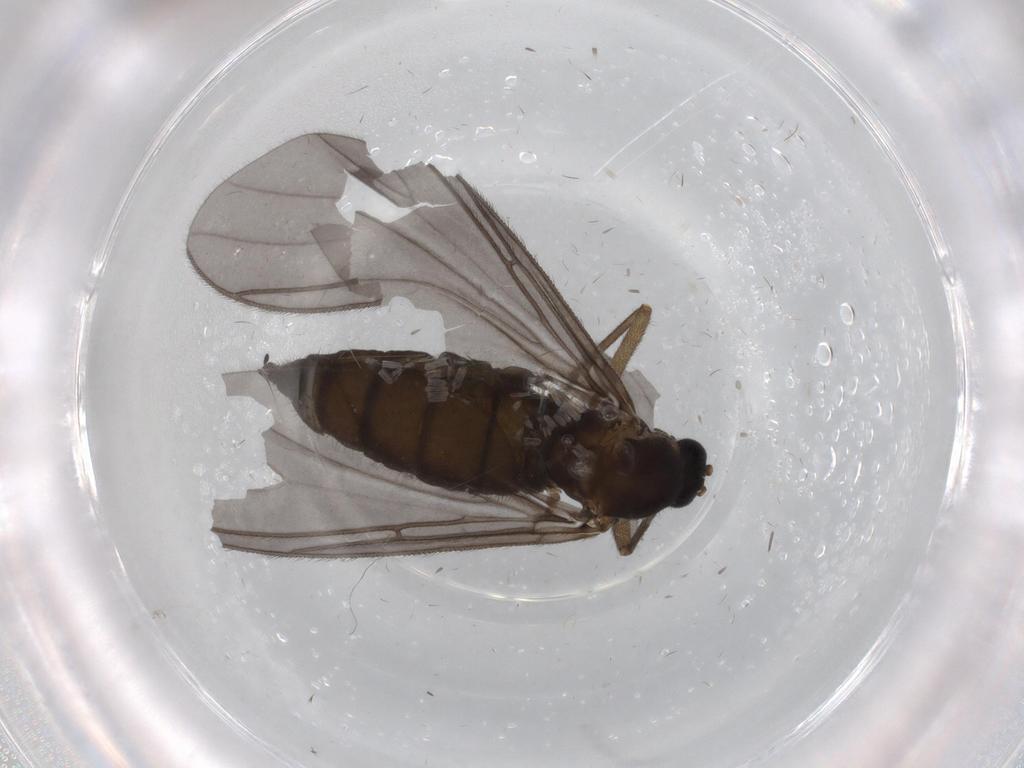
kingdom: Animalia
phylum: Arthropoda
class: Insecta
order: Diptera
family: Sciaridae
